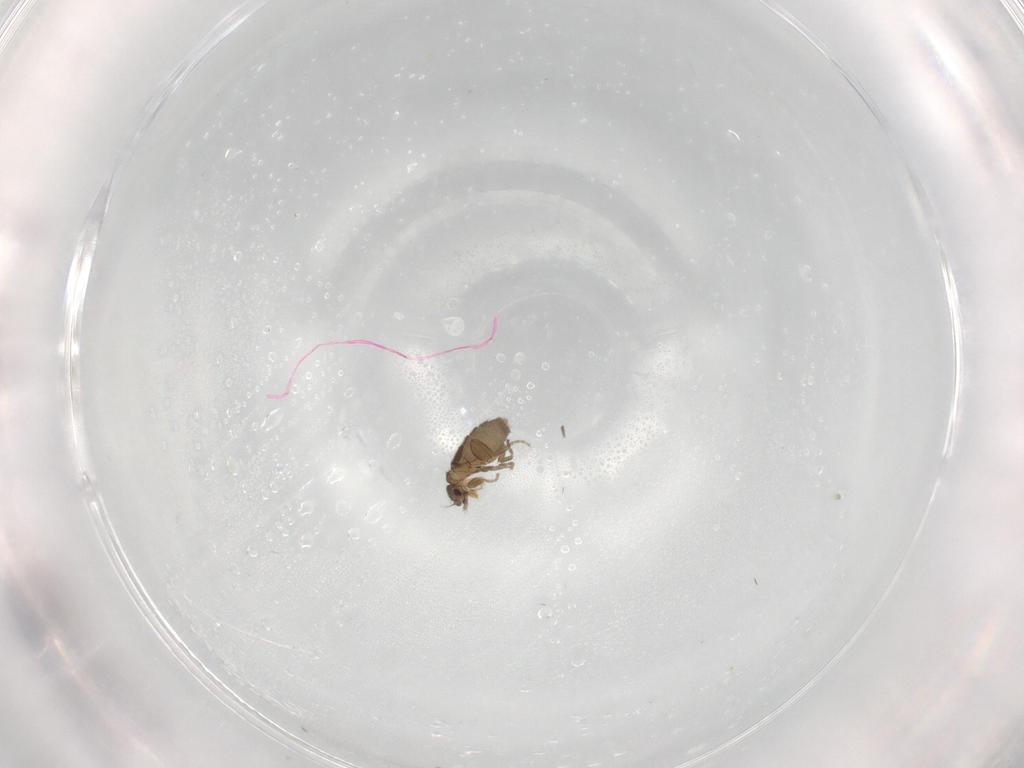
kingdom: Animalia
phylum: Arthropoda
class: Insecta
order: Diptera
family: Phoridae
